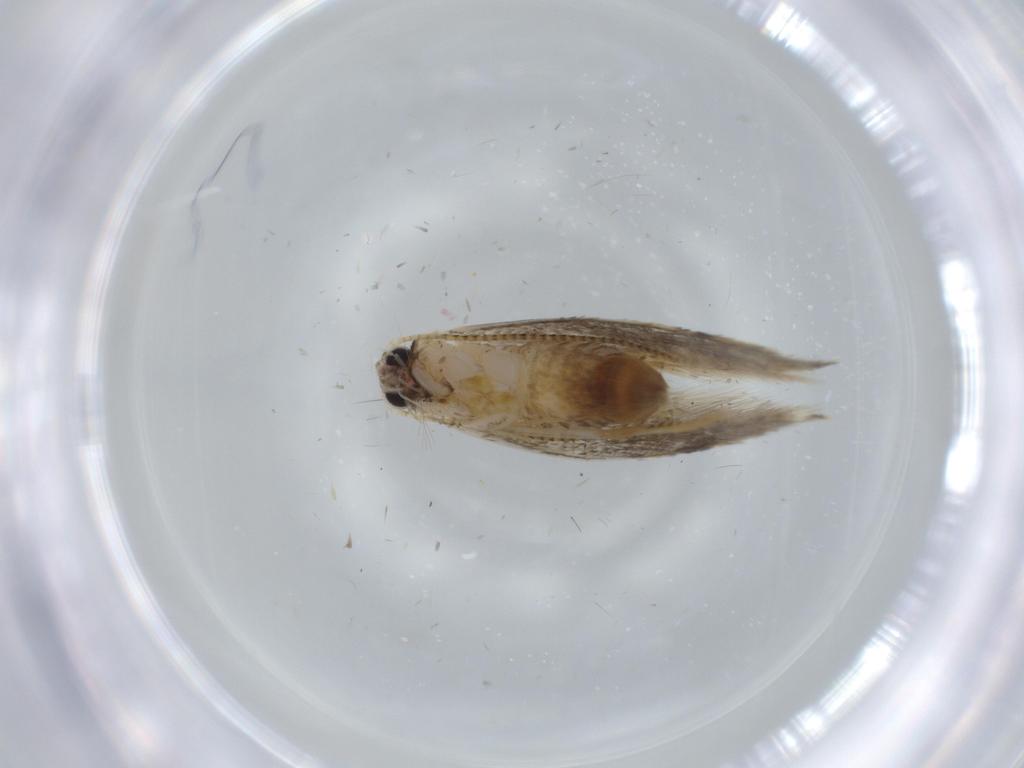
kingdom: Animalia
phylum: Arthropoda
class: Insecta
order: Lepidoptera
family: Tineidae
